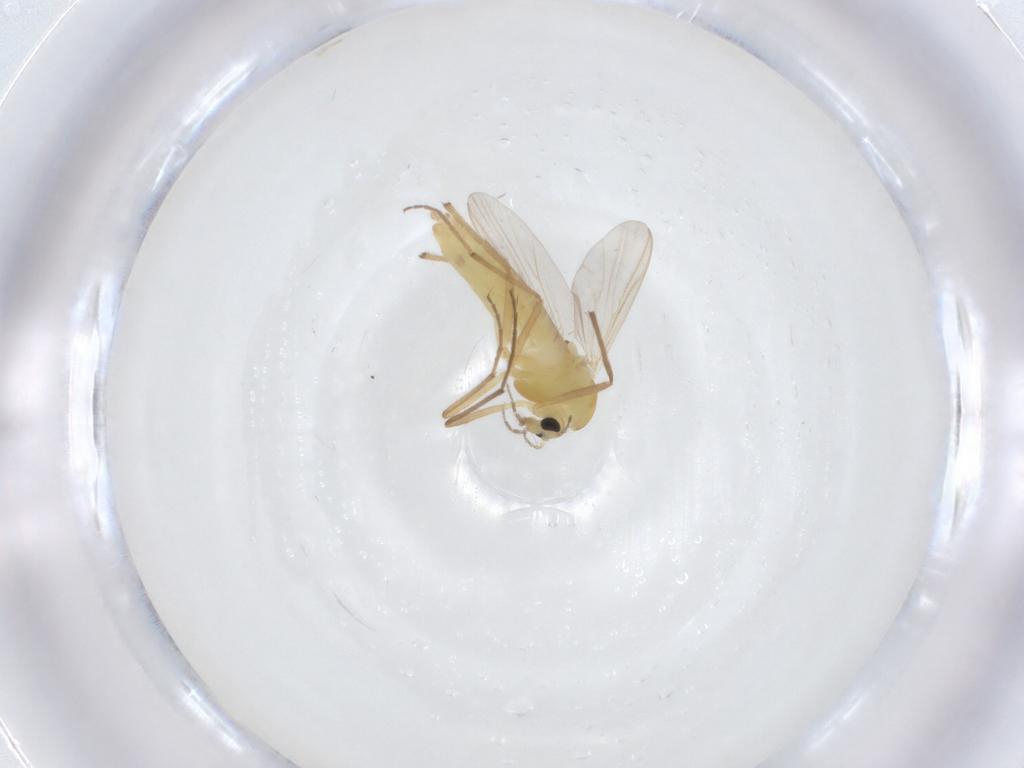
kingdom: Animalia
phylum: Arthropoda
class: Insecta
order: Diptera
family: Chironomidae
